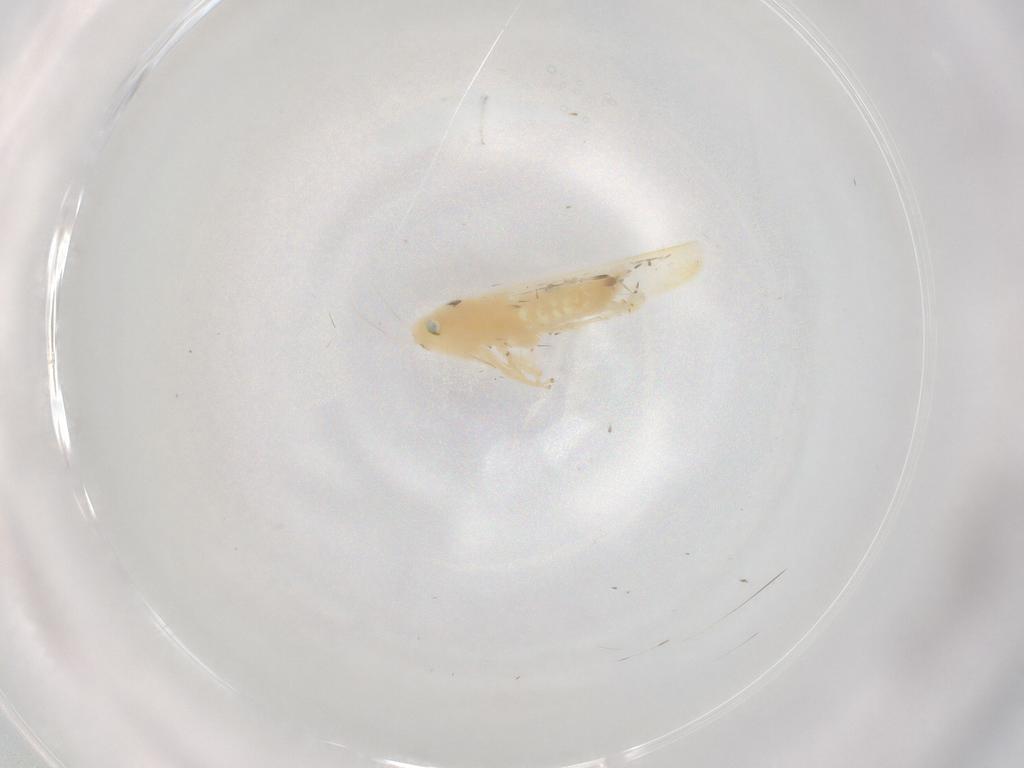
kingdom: Animalia
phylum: Arthropoda
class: Insecta
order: Hemiptera
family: Cicadellidae
